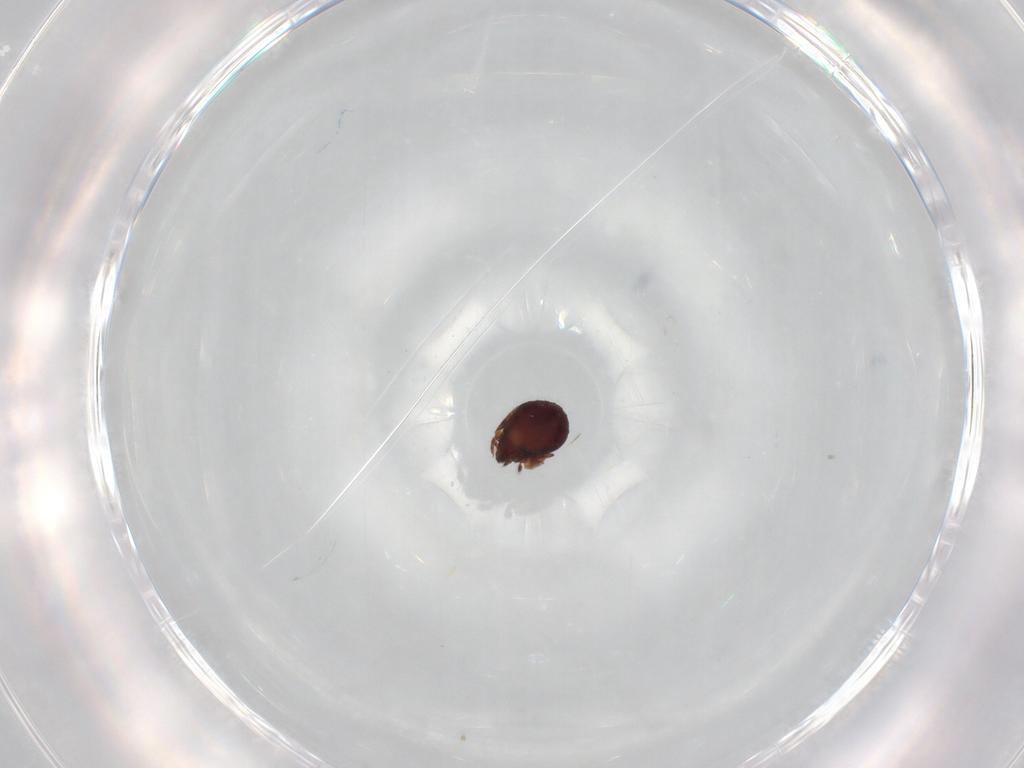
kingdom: Animalia
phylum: Arthropoda
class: Arachnida
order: Sarcoptiformes
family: Humerobatidae
